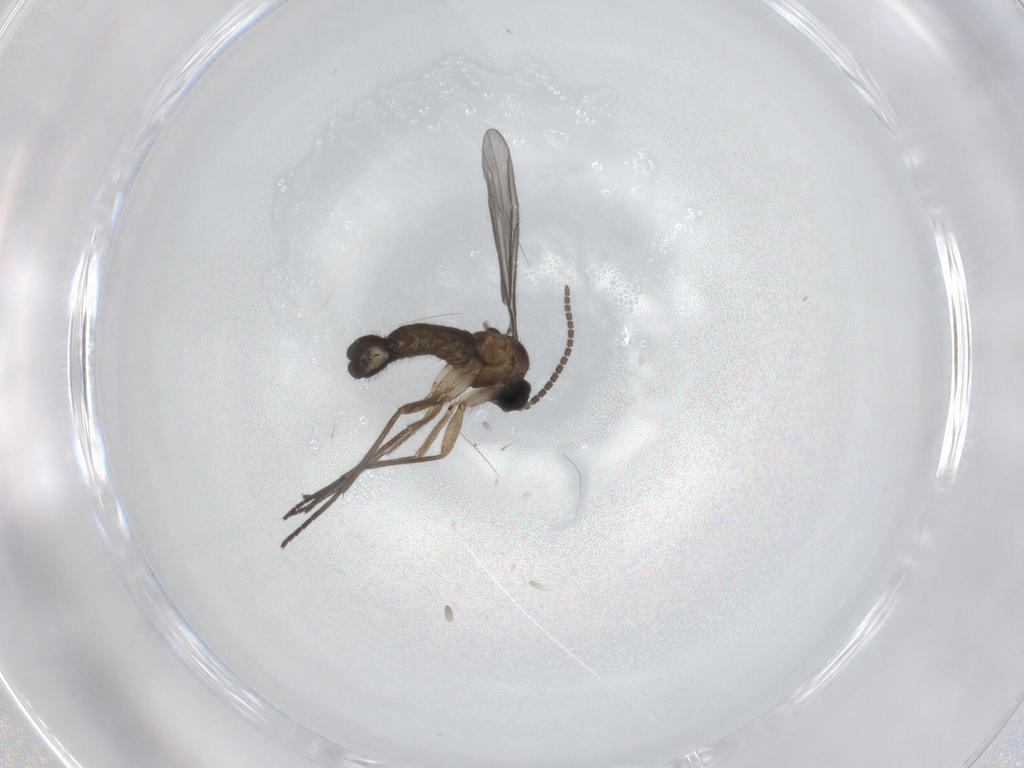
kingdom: Animalia
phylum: Arthropoda
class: Insecta
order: Diptera
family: Sciaridae
